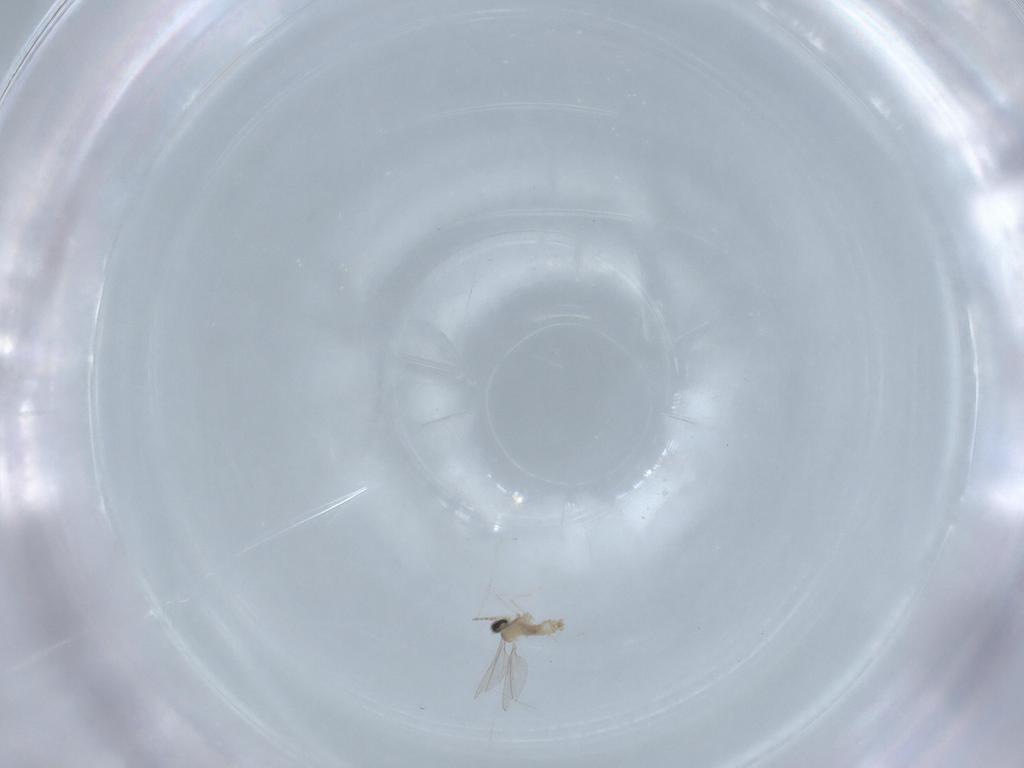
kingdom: Animalia
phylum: Arthropoda
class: Insecta
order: Diptera
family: Cecidomyiidae
